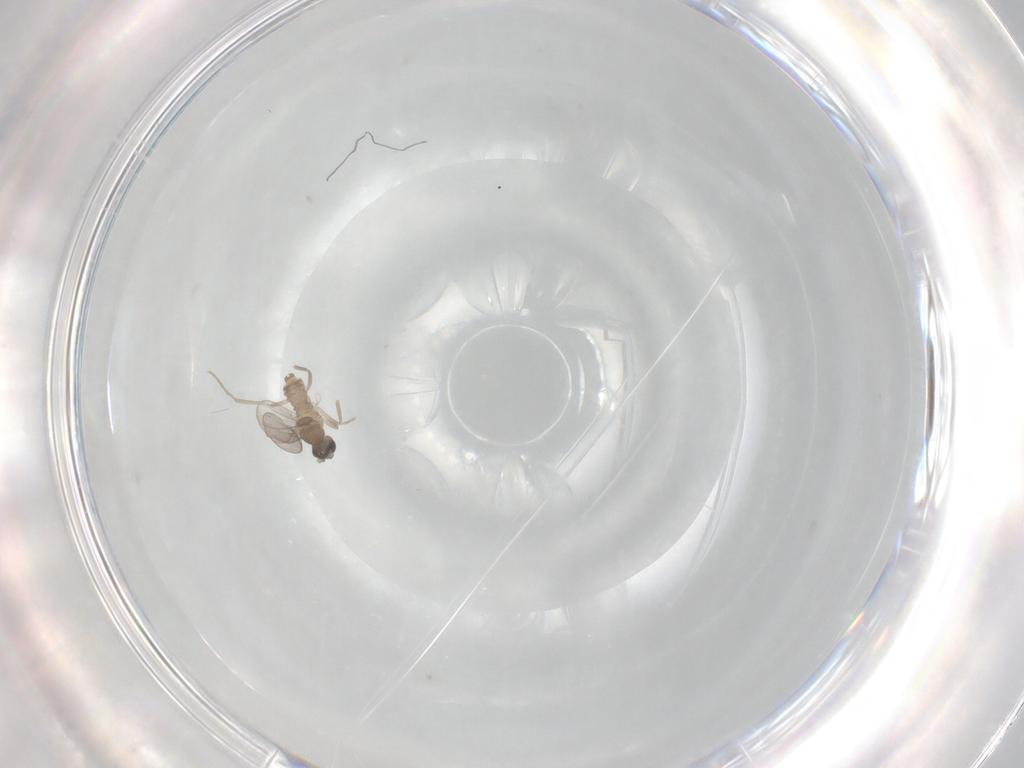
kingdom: Animalia
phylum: Arthropoda
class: Insecta
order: Diptera
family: Cecidomyiidae
